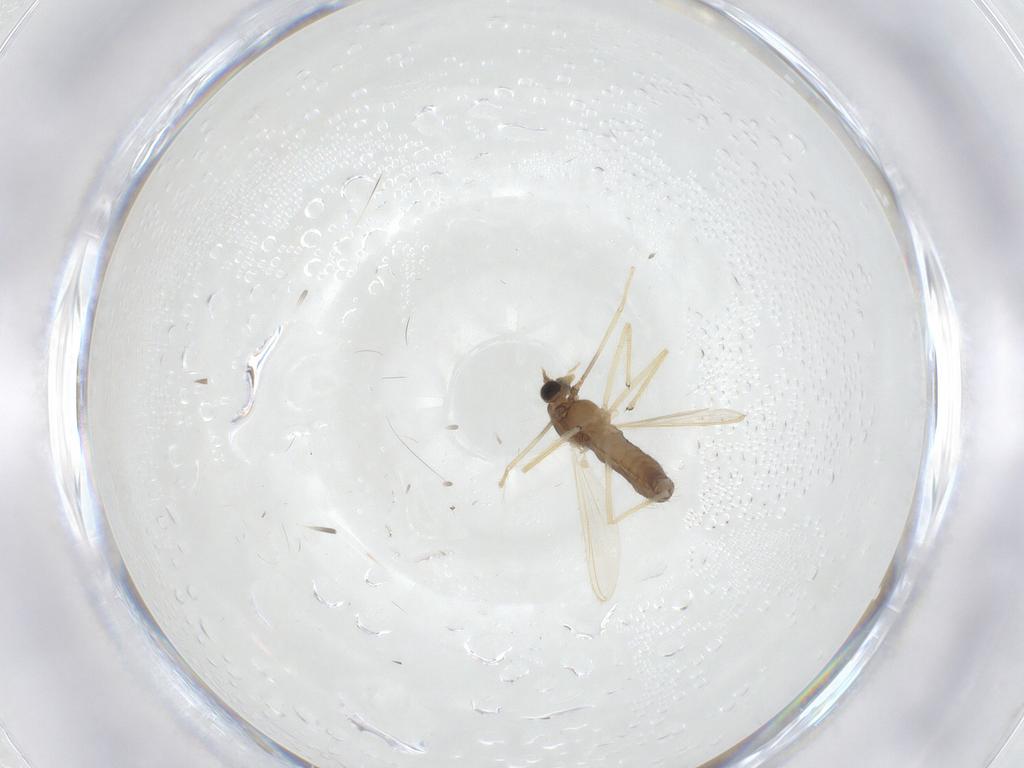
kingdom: Animalia
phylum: Arthropoda
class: Insecta
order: Diptera
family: Chironomidae
